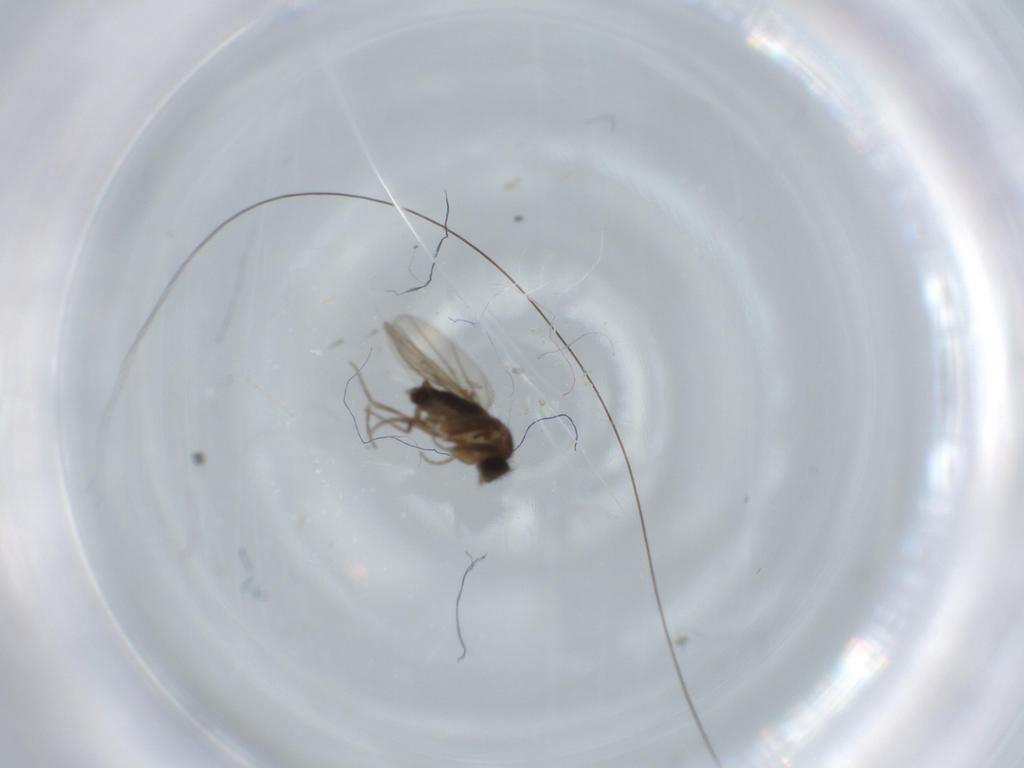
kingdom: Animalia
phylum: Arthropoda
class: Insecta
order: Diptera
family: Phoridae
